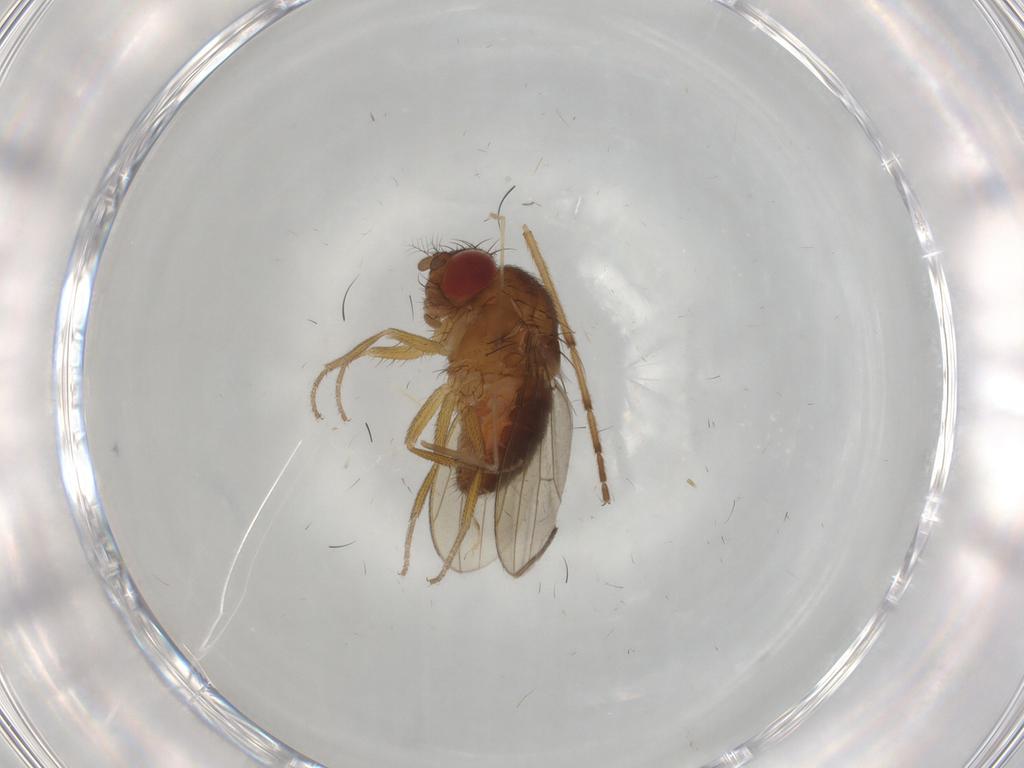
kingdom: Animalia
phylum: Arthropoda
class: Insecta
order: Diptera
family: Drosophilidae
